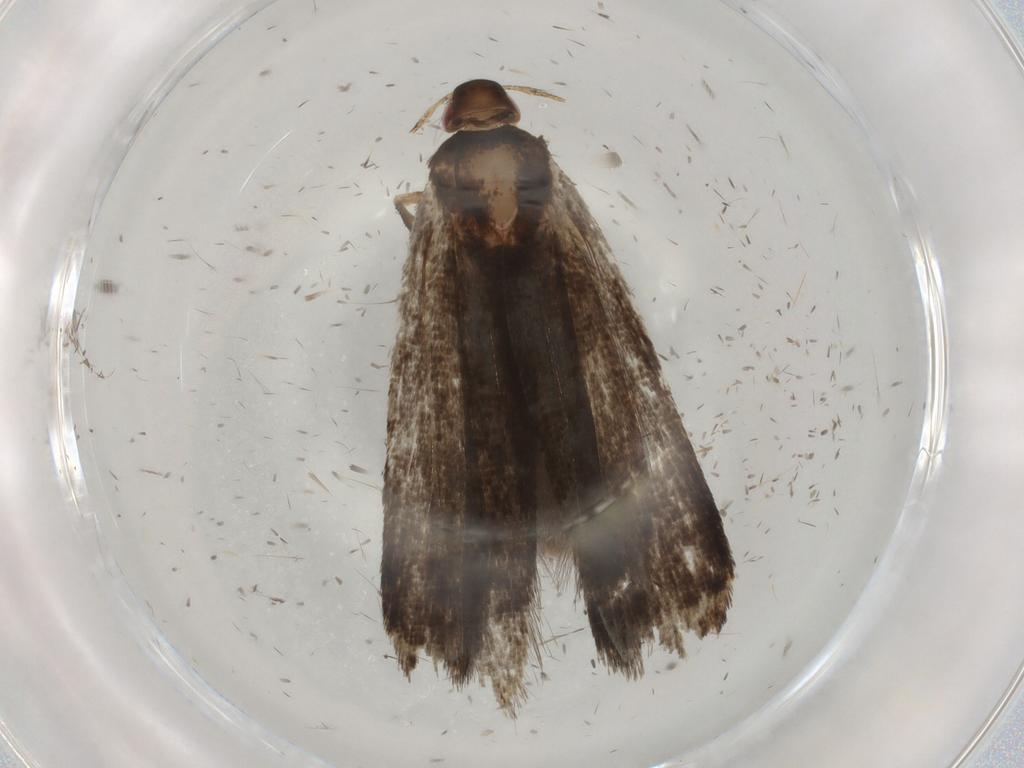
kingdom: Animalia
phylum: Arthropoda
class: Insecta
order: Lepidoptera
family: Gelechiidae
